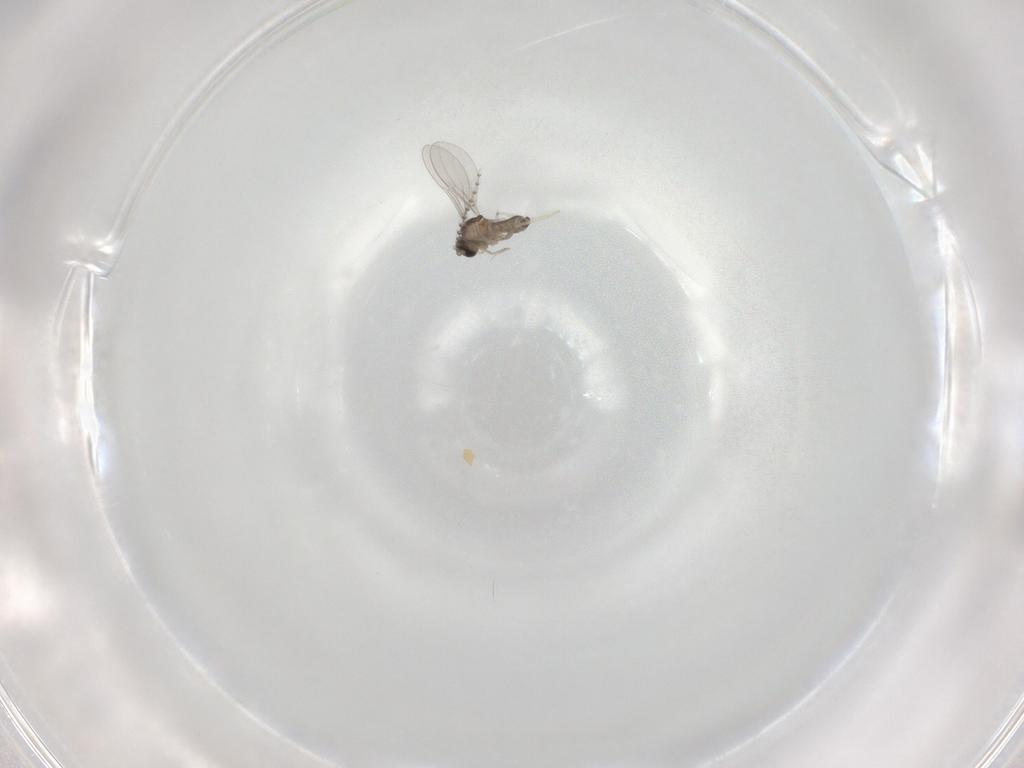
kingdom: Animalia
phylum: Arthropoda
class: Insecta
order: Diptera
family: Cecidomyiidae
